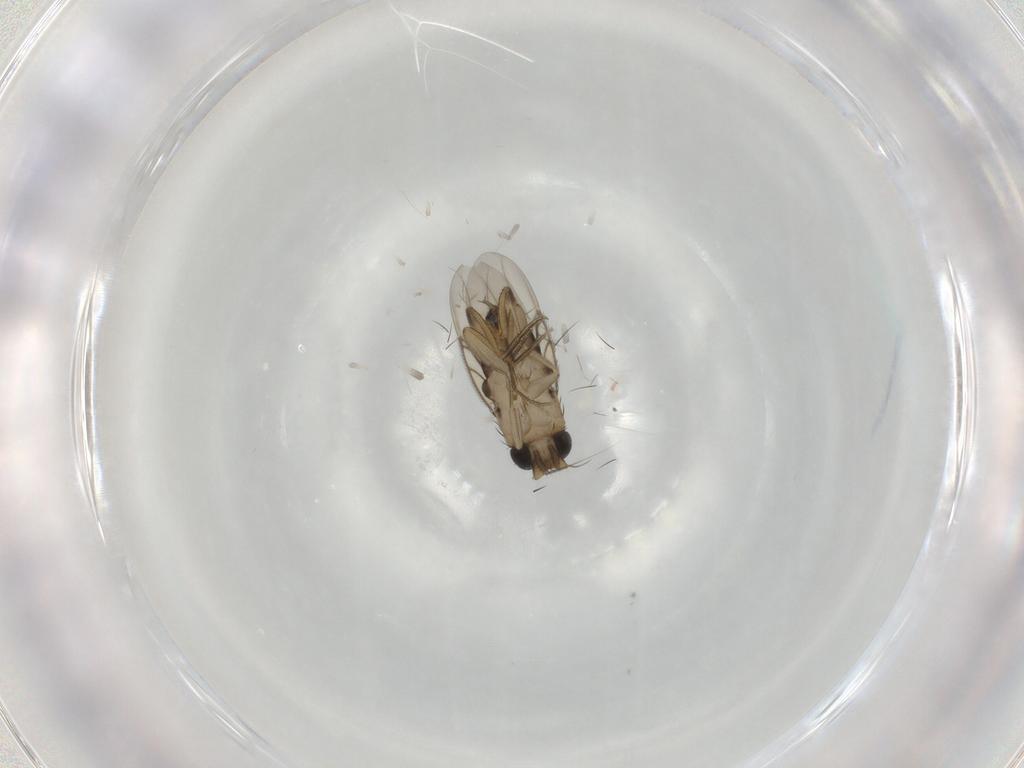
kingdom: Animalia
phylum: Arthropoda
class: Insecta
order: Diptera
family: Phoridae
